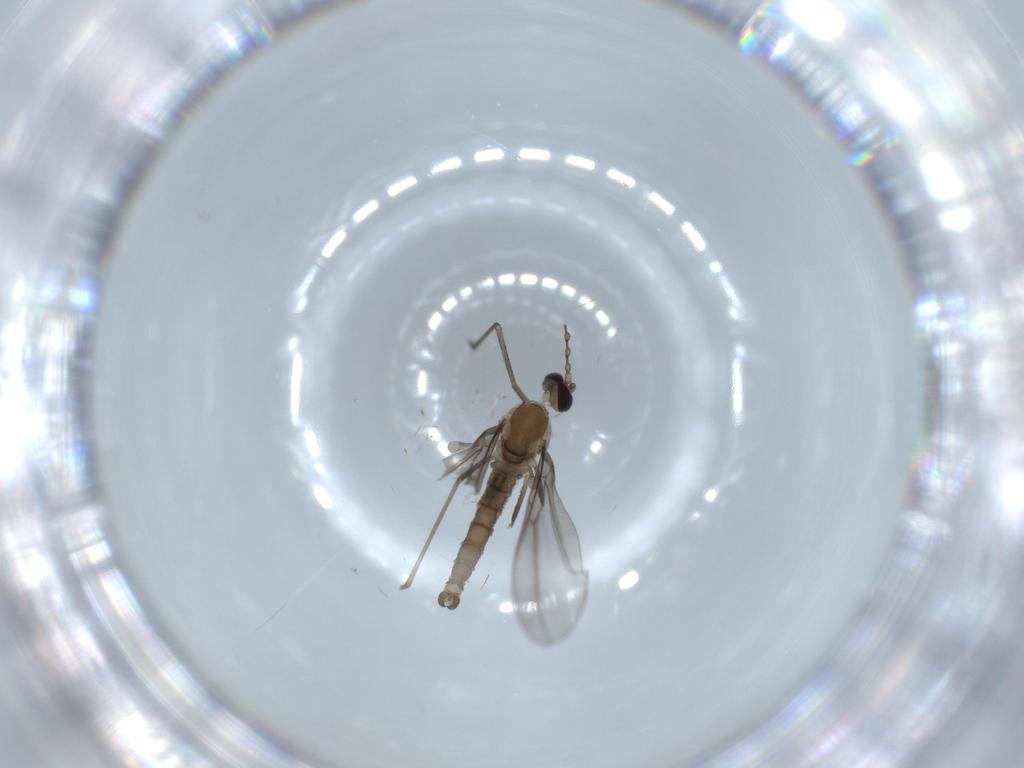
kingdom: Animalia
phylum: Arthropoda
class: Insecta
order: Diptera
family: Cecidomyiidae
